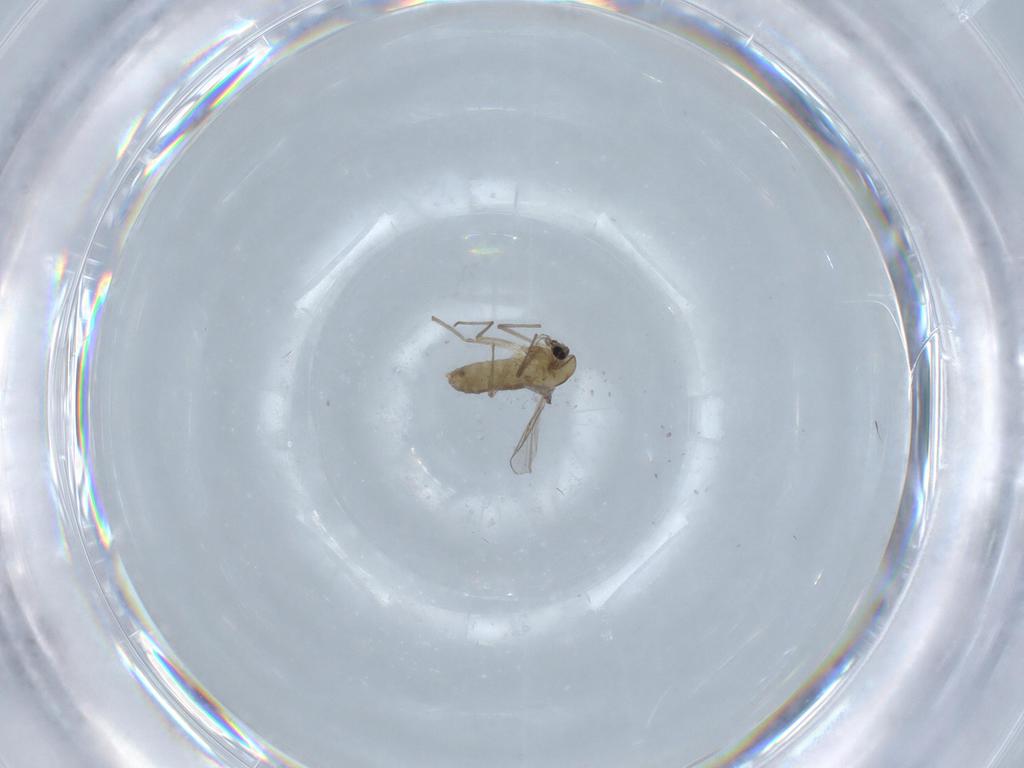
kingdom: Animalia
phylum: Arthropoda
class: Insecta
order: Diptera
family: Chironomidae
